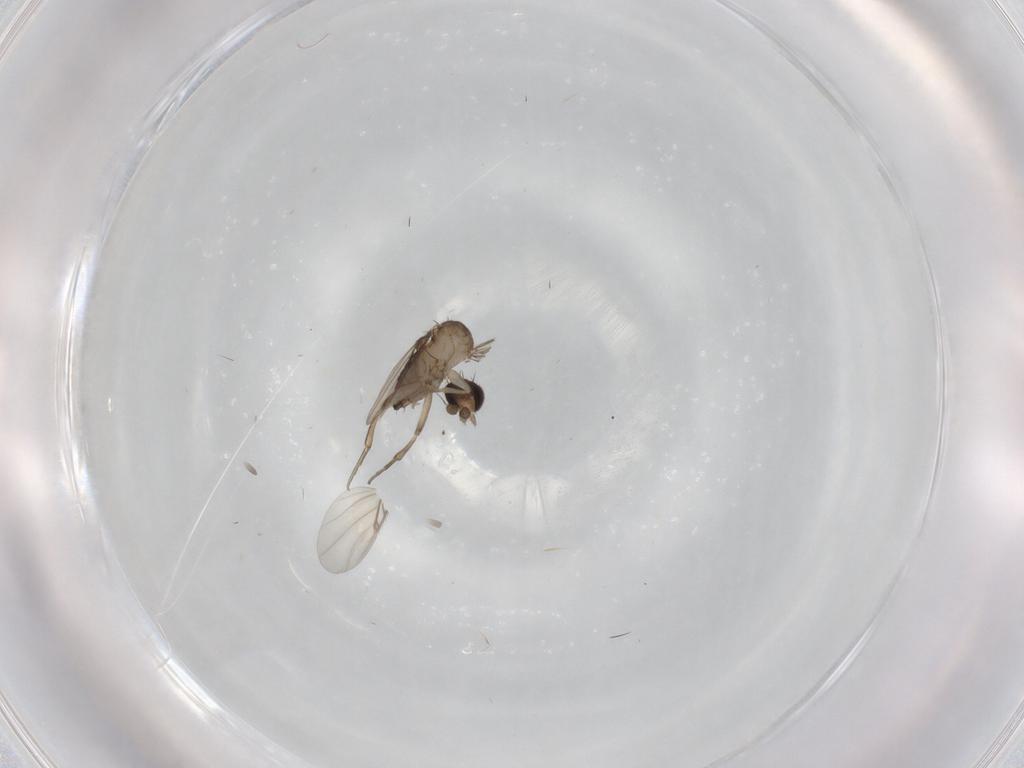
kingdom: Animalia
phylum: Arthropoda
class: Insecta
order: Diptera
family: Phoridae
